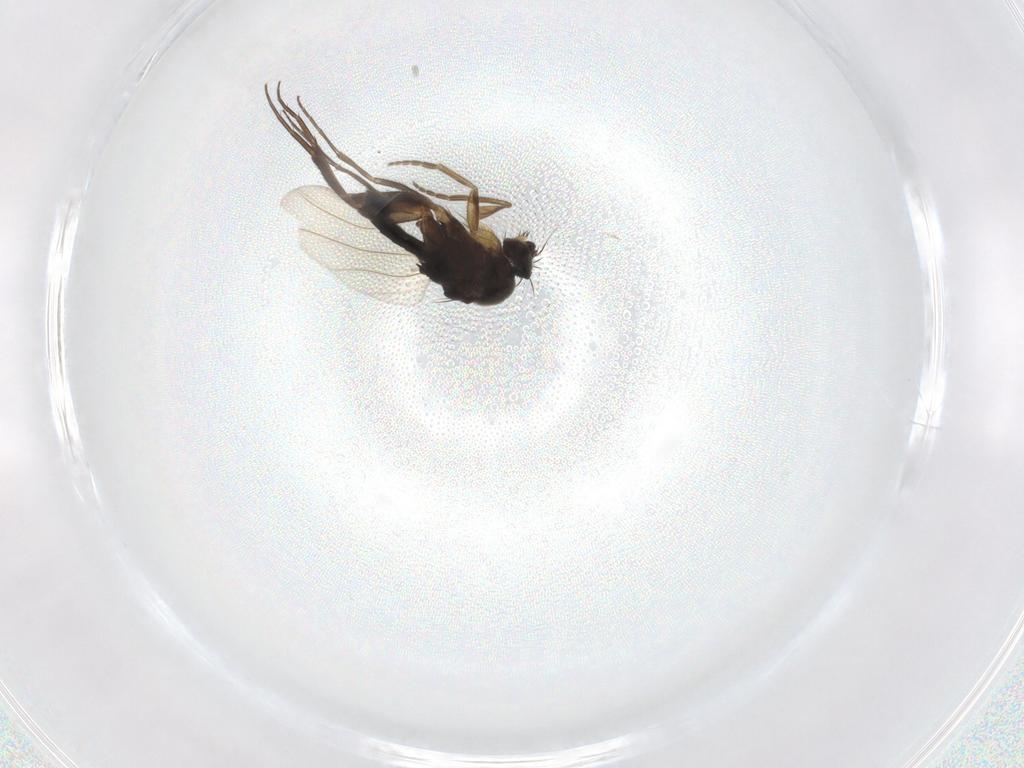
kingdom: Animalia
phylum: Arthropoda
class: Insecta
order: Diptera
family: Phoridae
